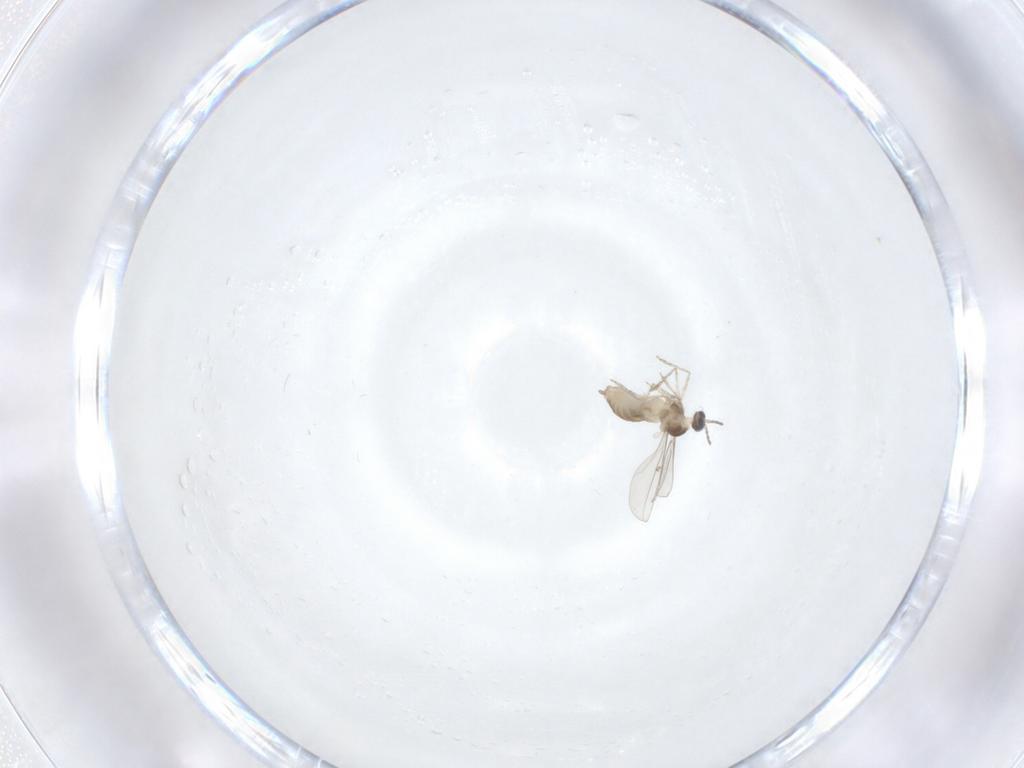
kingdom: Animalia
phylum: Arthropoda
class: Insecta
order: Diptera
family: Cecidomyiidae
